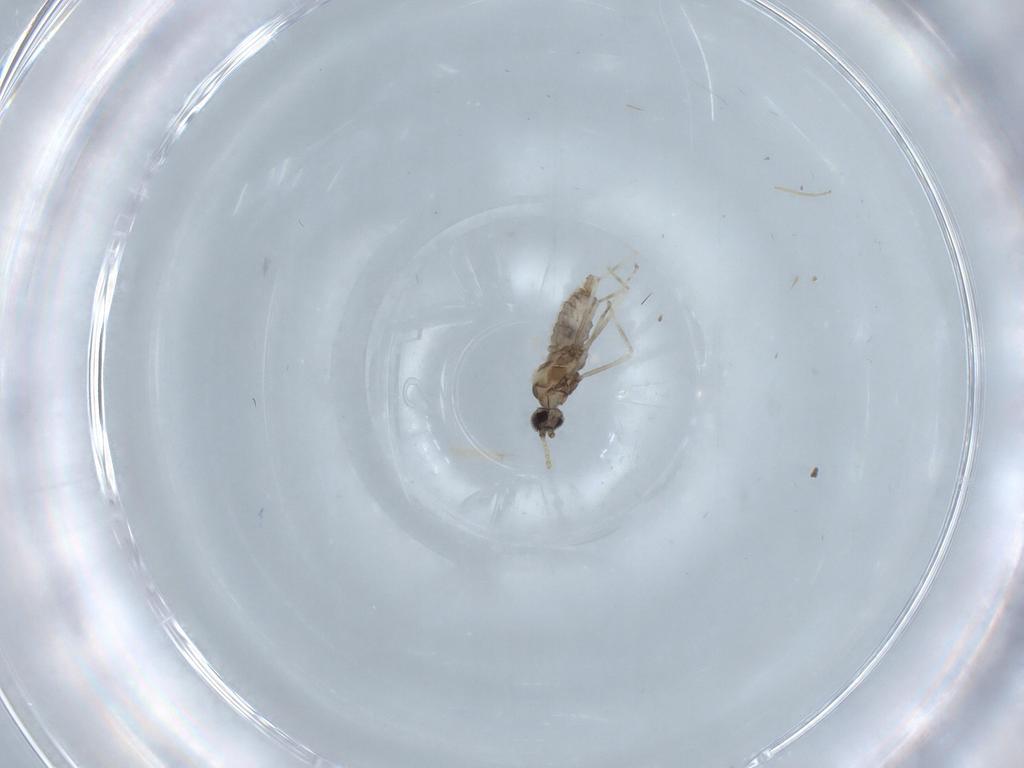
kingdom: Animalia
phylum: Arthropoda
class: Insecta
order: Diptera
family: Cecidomyiidae
